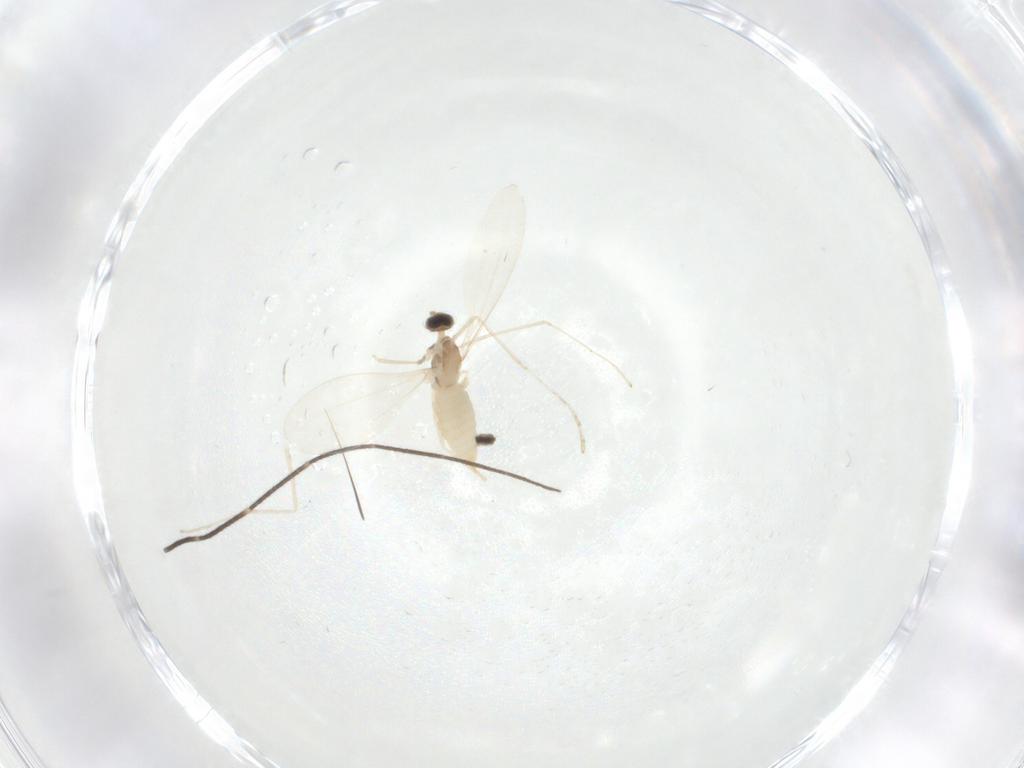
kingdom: Animalia
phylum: Arthropoda
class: Insecta
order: Diptera
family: Cecidomyiidae
